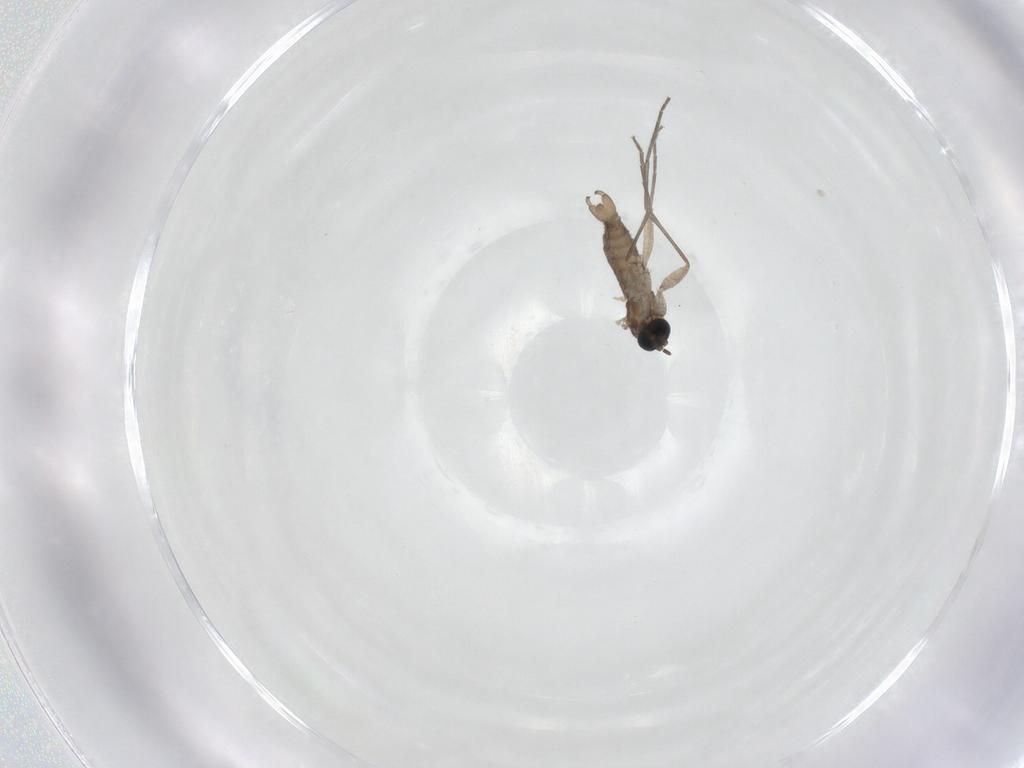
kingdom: Animalia
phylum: Arthropoda
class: Insecta
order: Diptera
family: Sciaridae
